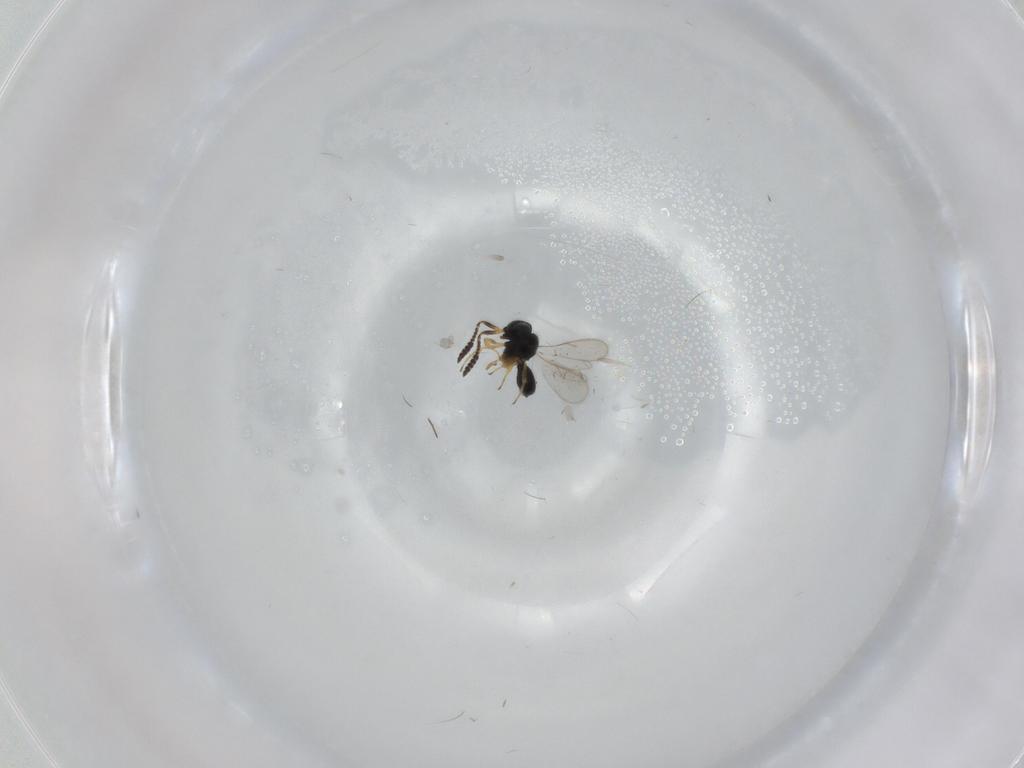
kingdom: Animalia
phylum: Arthropoda
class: Insecta
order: Hymenoptera
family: Scelionidae
